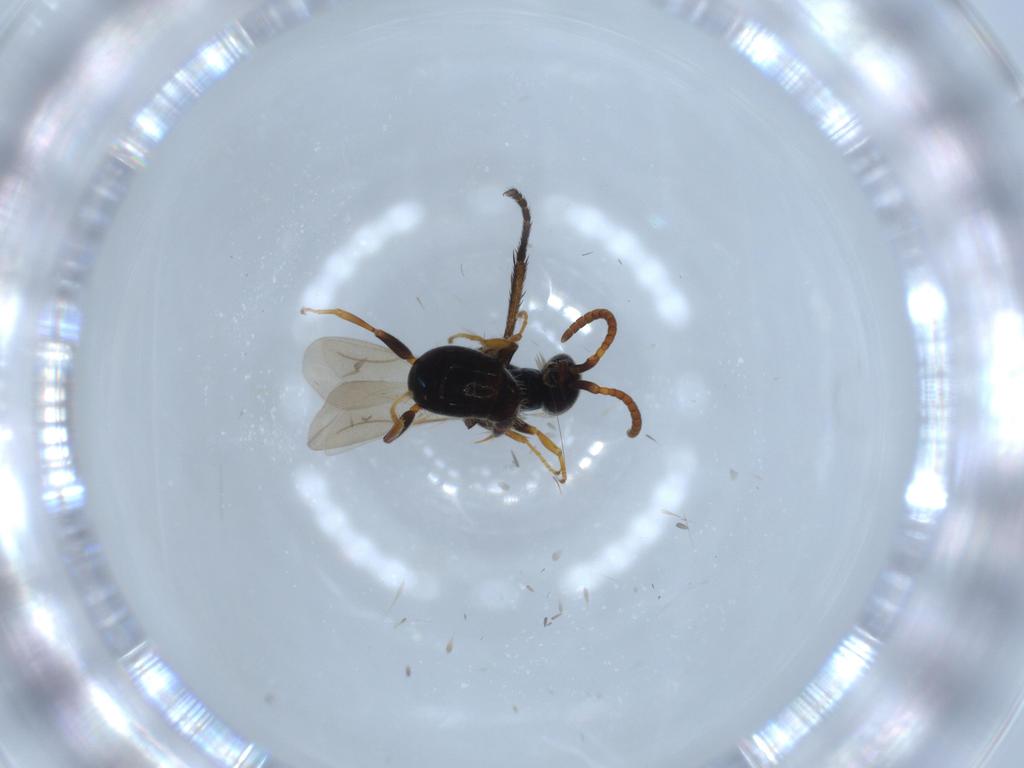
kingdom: Animalia
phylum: Arthropoda
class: Insecta
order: Hymenoptera
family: Bethylidae
